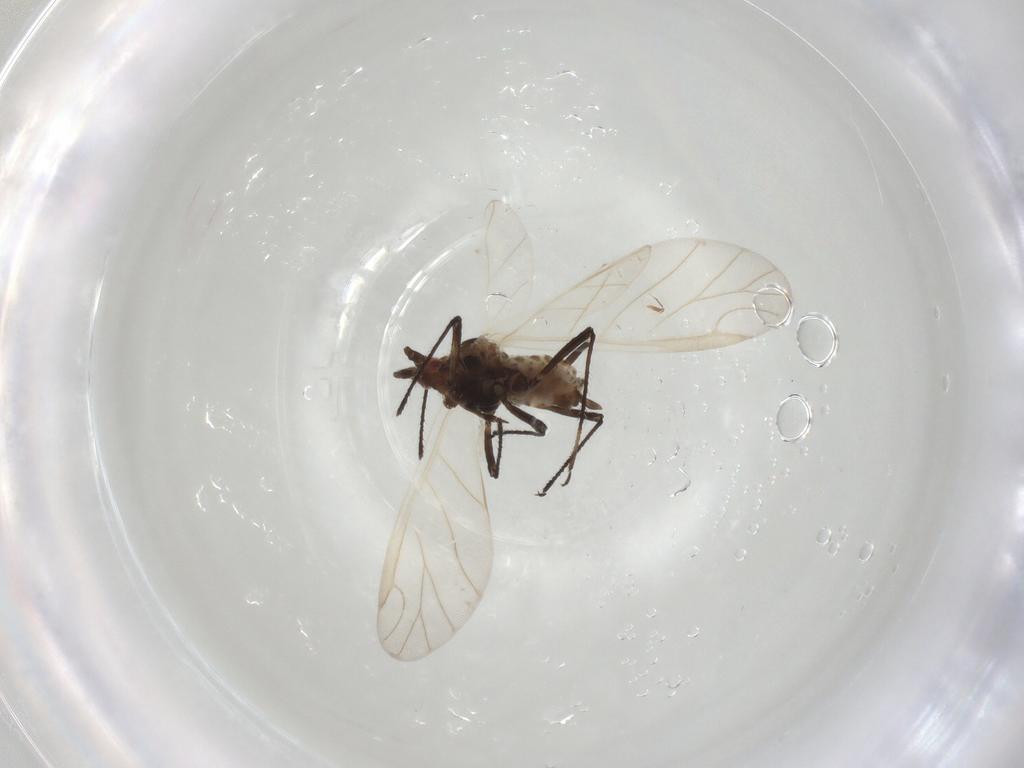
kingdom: Animalia
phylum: Arthropoda
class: Insecta
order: Hemiptera
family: Aphididae
